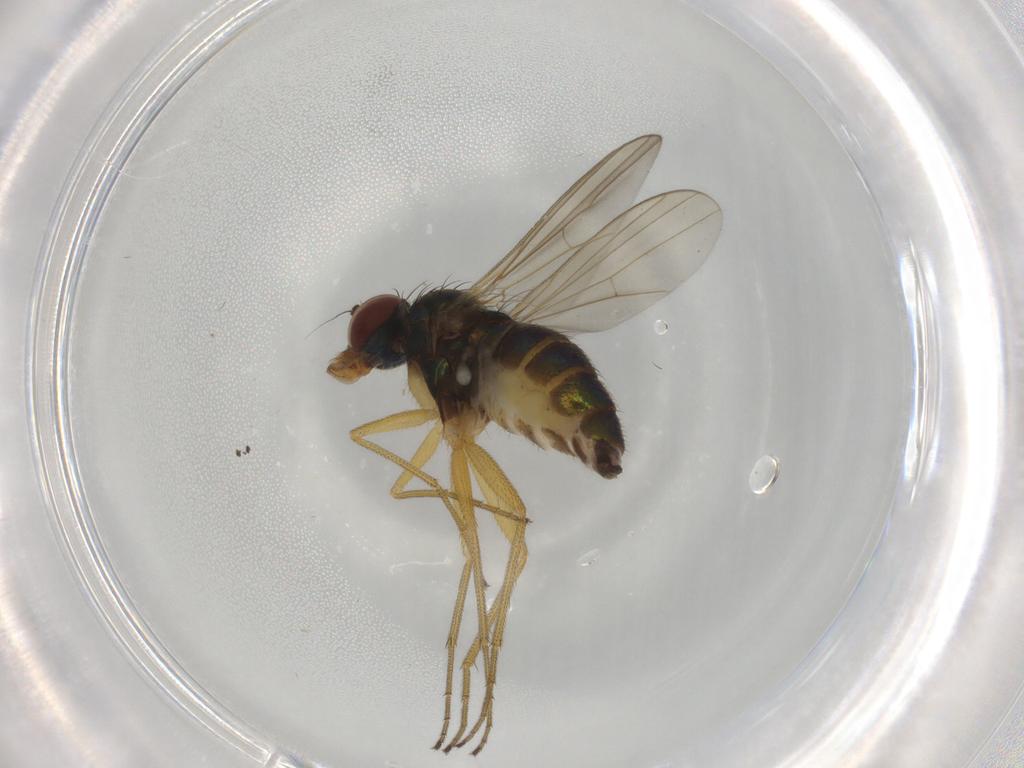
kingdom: Animalia
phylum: Arthropoda
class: Insecta
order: Diptera
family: Dolichopodidae
